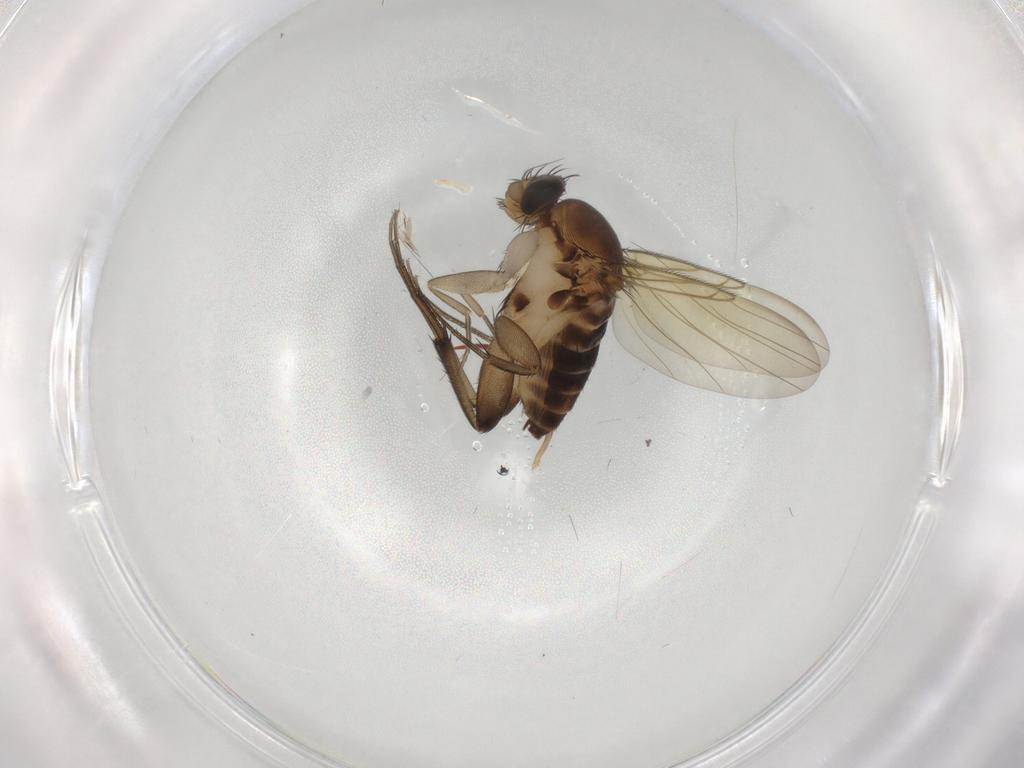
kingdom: Animalia
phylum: Arthropoda
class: Insecta
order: Diptera
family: Phoridae
